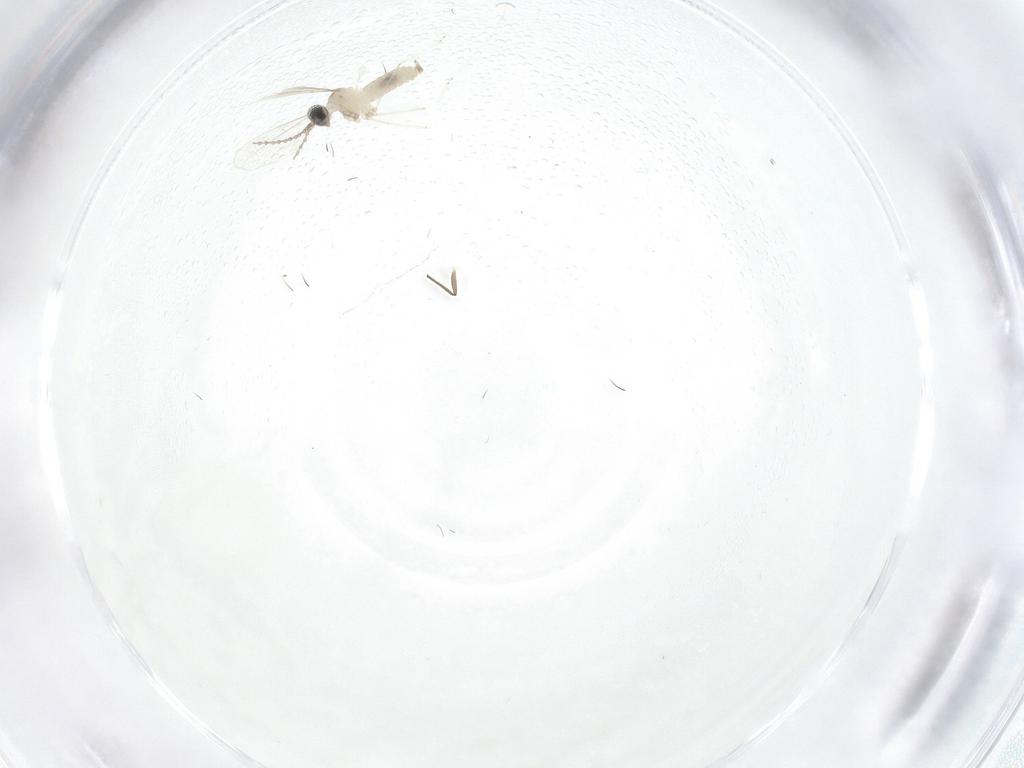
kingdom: Animalia
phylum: Arthropoda
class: Insecta
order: Diptera
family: Cecidomyiidae
